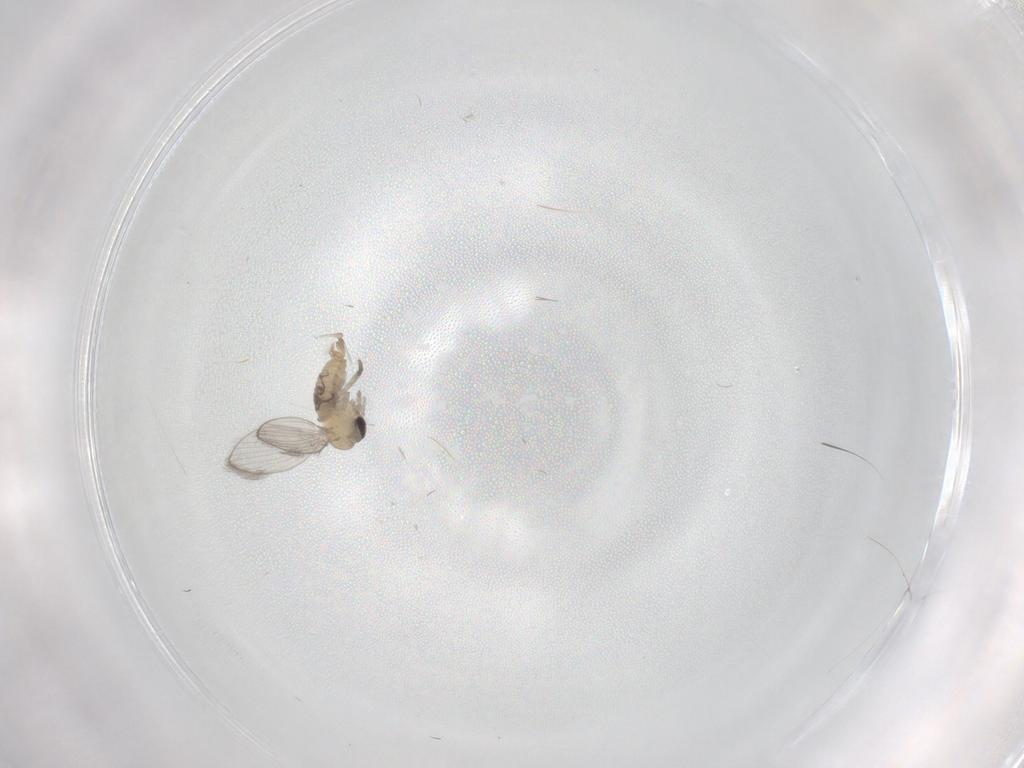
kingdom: Animalia
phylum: Arthropoda
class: Insecta
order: Diptera
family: Psychodidae
